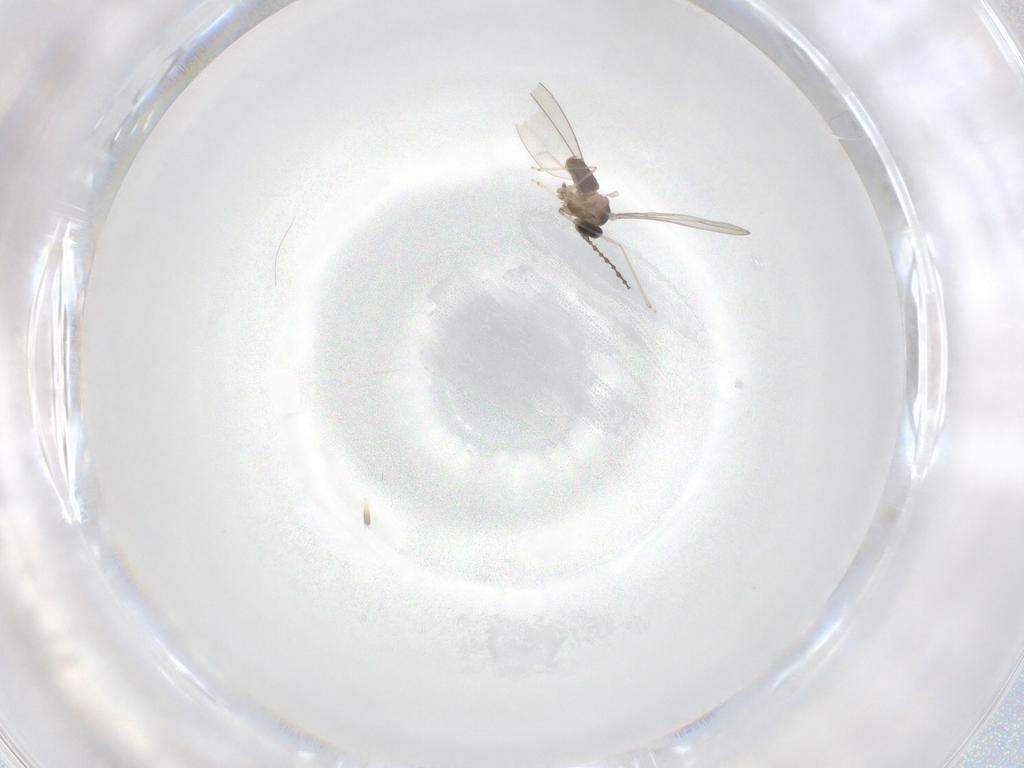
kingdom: Animalia
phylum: Arthropoda
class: Insecta
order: Diptera
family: Cecidomyiidae
